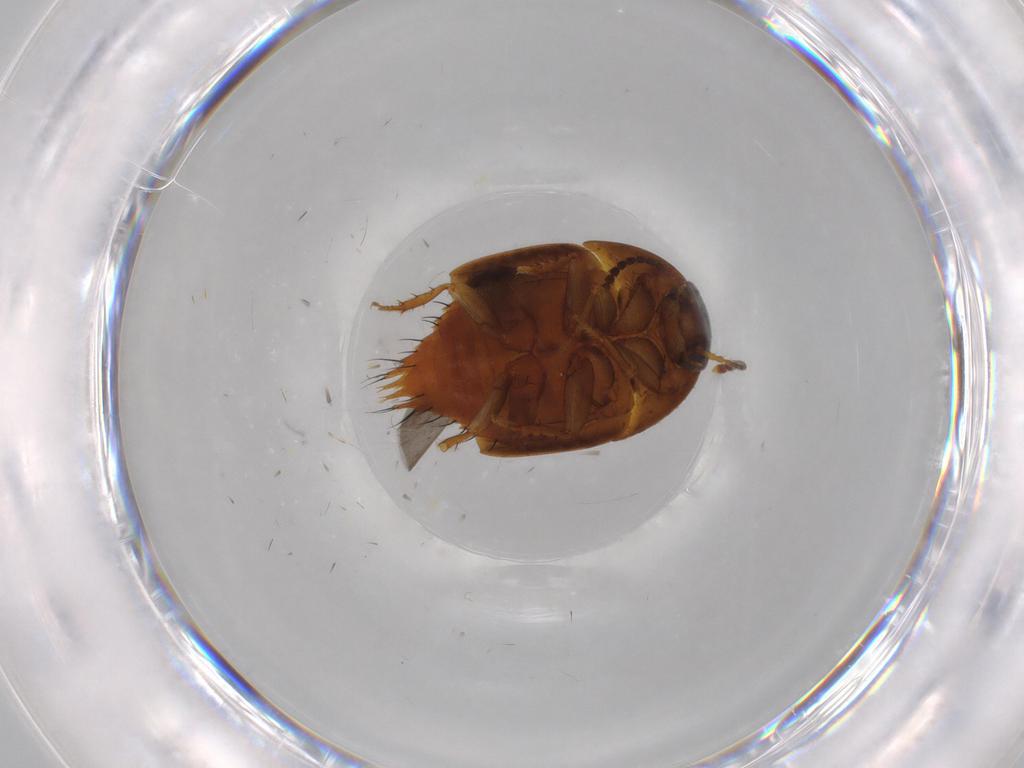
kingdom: Animalia
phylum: Arthropoda
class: Insecta
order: Coleoptera
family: Staphylinidae
